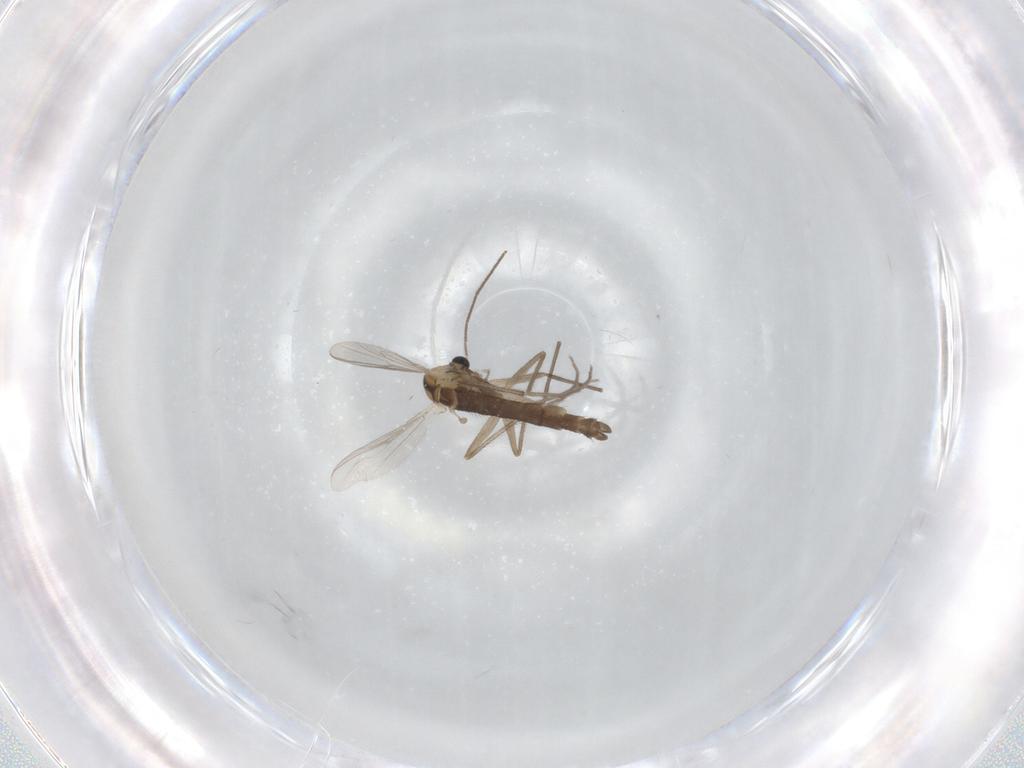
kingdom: Animalia
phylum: Arthropoda
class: Insecta
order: Diptera
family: Chironomidae
